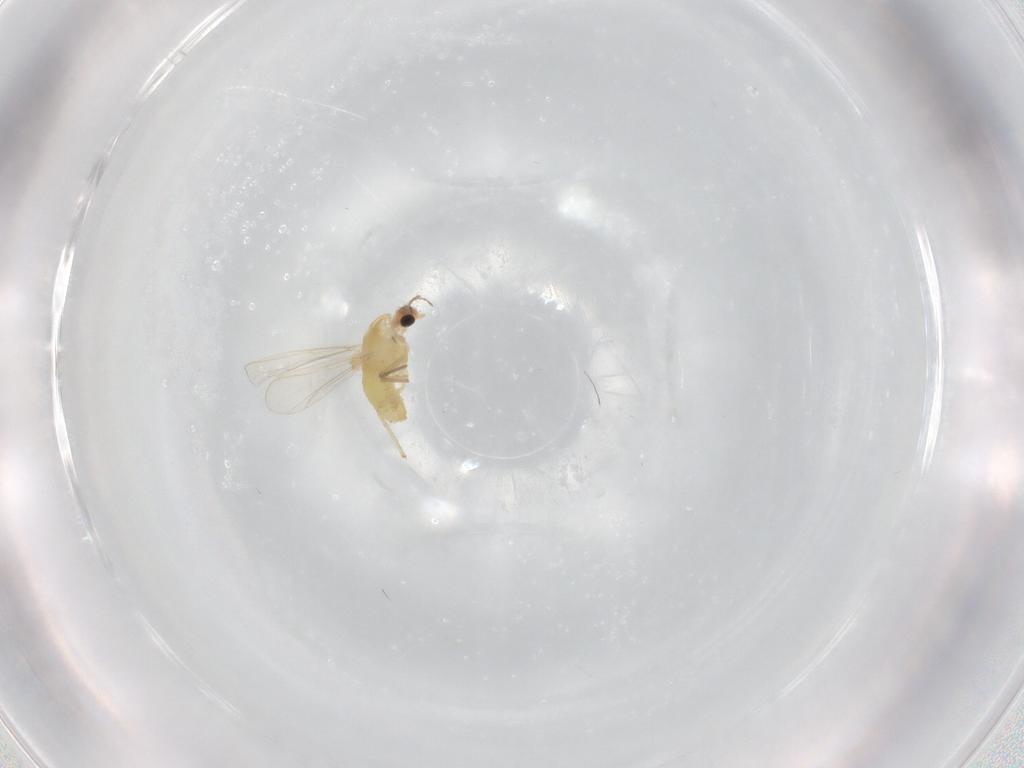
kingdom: Animalia
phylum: Arthropoda
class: Insecta
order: Diptera
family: Chironomidae
